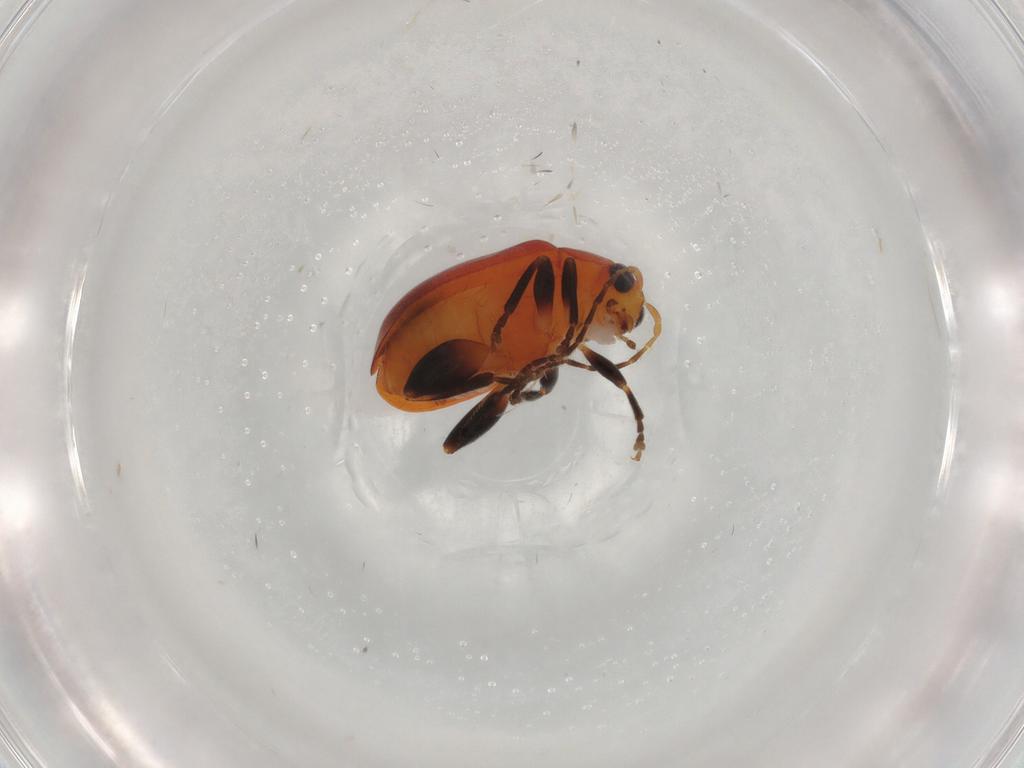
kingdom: Animalia
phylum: Arthropoda
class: Insecta
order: Coleoptera
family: Chrysomelidae
